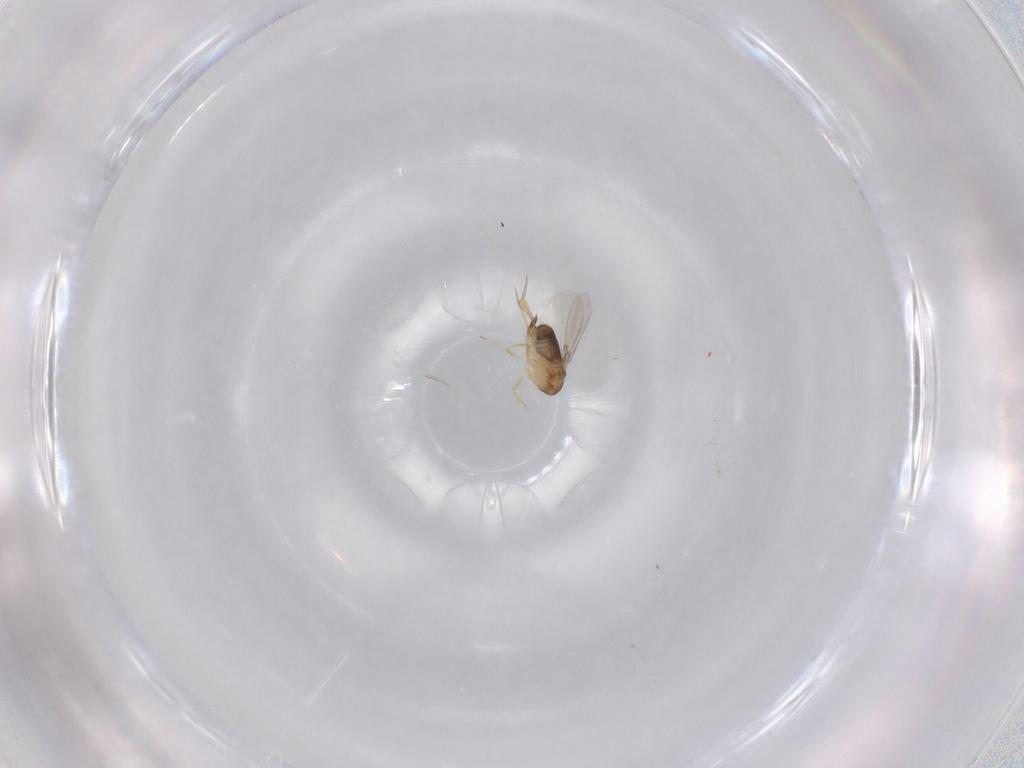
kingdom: Animalia
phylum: Arthropoda
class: Insecta
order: Diptera
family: Phoridae
